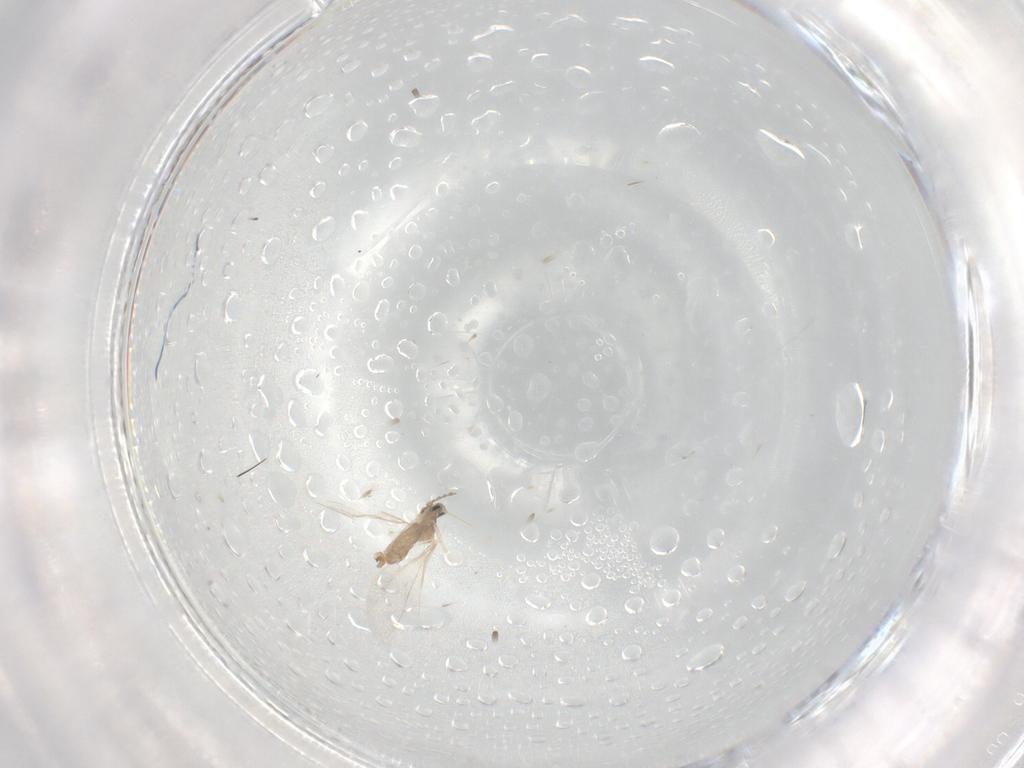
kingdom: Animalia
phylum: Arthropoda
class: Insecta
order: Diptera
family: Cecidomyiidae
